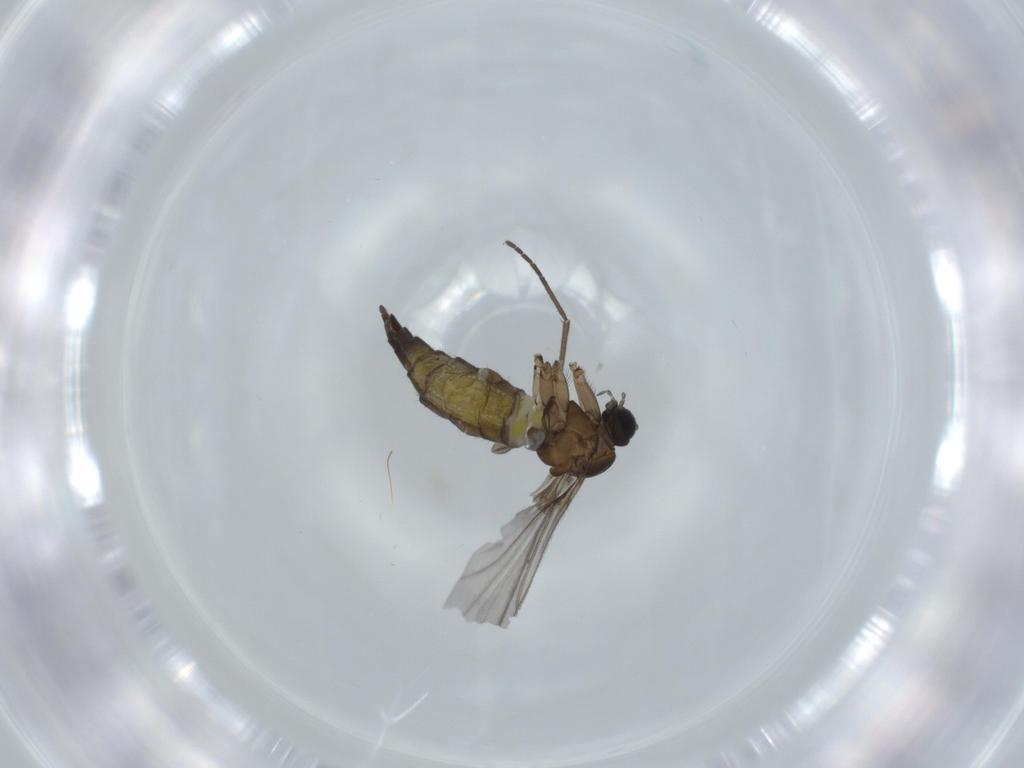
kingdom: Animalia
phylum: Arthropoda
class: Insecta
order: Diptera
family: Sciaridae
